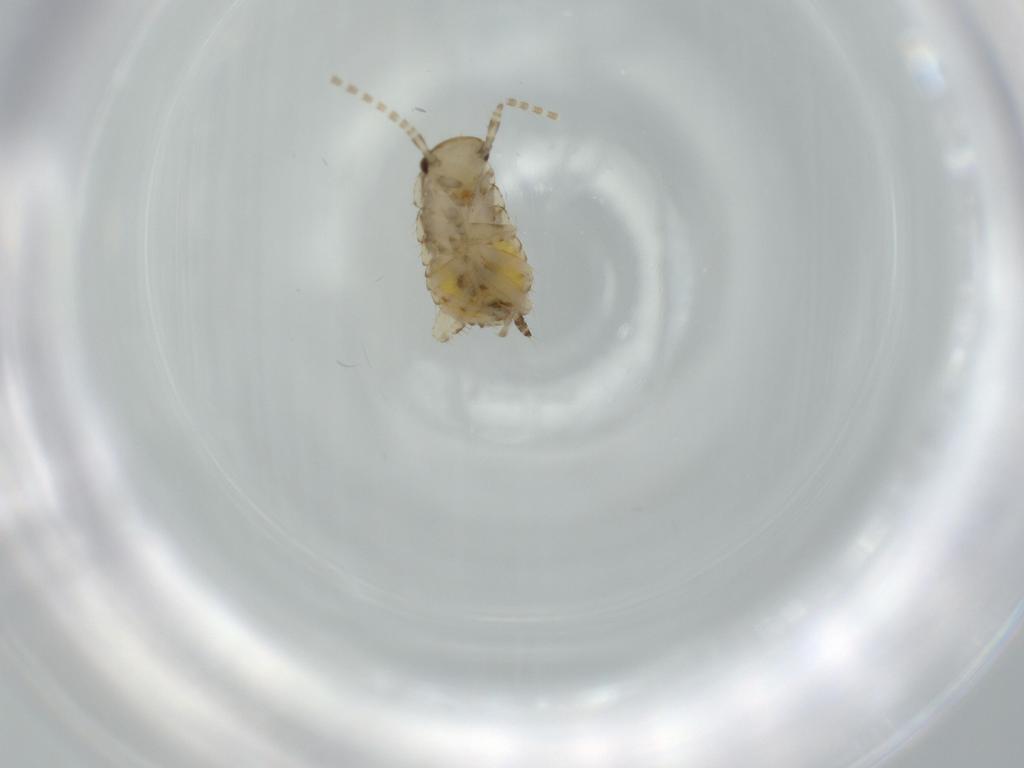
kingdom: Animalia
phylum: Arthropoda
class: Insecta
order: Blattodea
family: Ectobiidae
